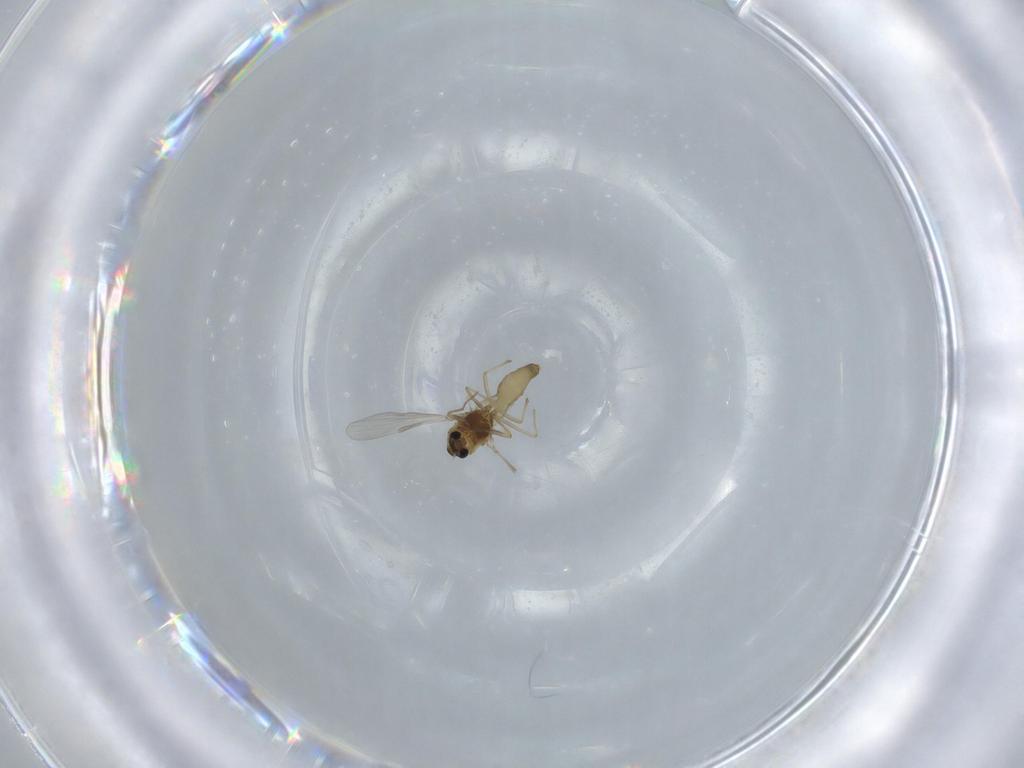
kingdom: Animalia
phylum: Arthropoda
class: Insecta
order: Diptera
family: Chironomidae
